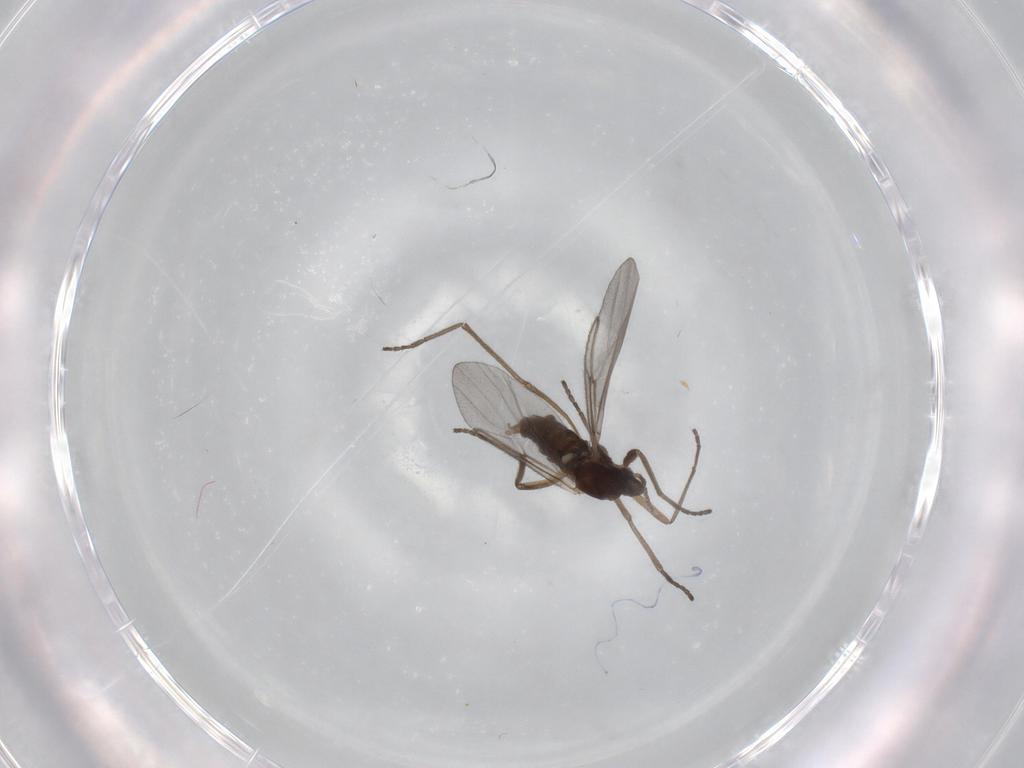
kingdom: Animalia
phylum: Arthropoda
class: Insecta
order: Diptera
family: Cecidomyiidae
